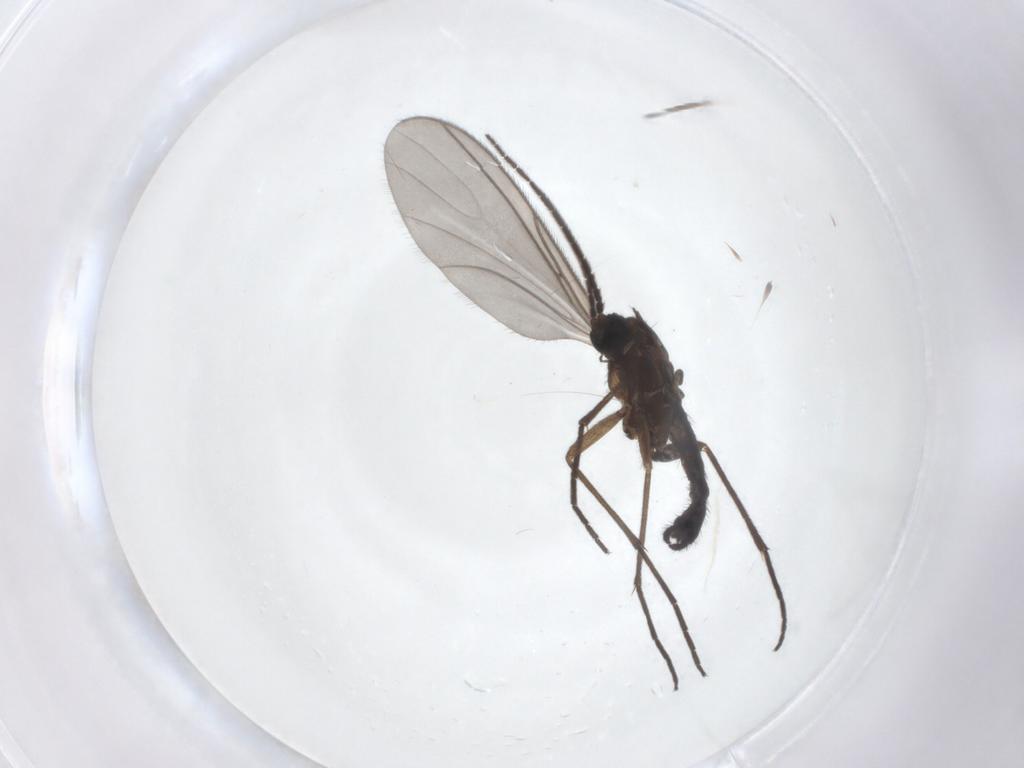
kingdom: Animalia
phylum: Arthropoda
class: Insecta
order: Diptera
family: Sciaridae
